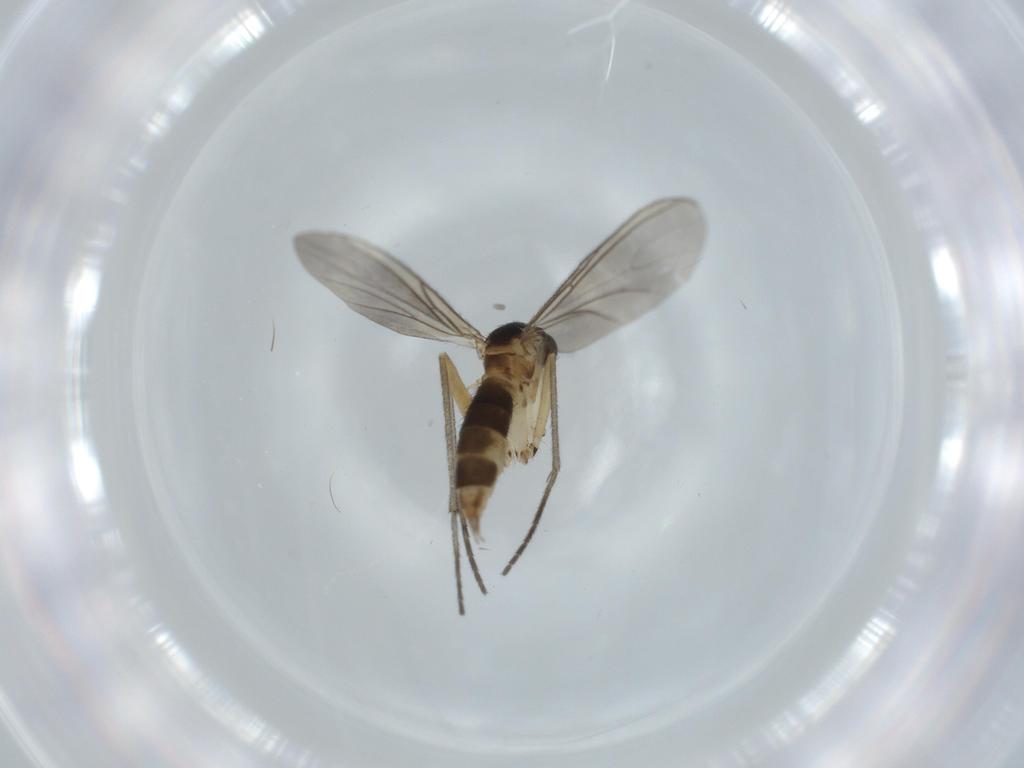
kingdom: Animalia
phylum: Arthropoda
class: Insecta
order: Diptera
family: Sciaridae
